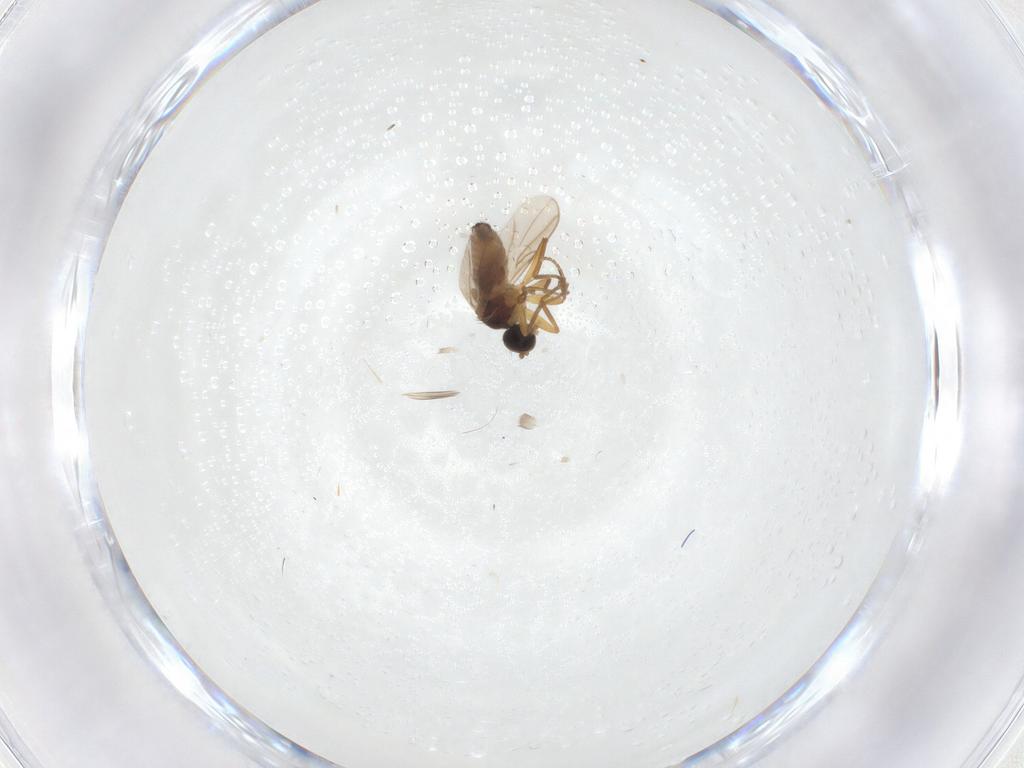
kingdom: Animalia
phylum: Arthropoda
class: Insecta
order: Diptera
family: Hybotidae
